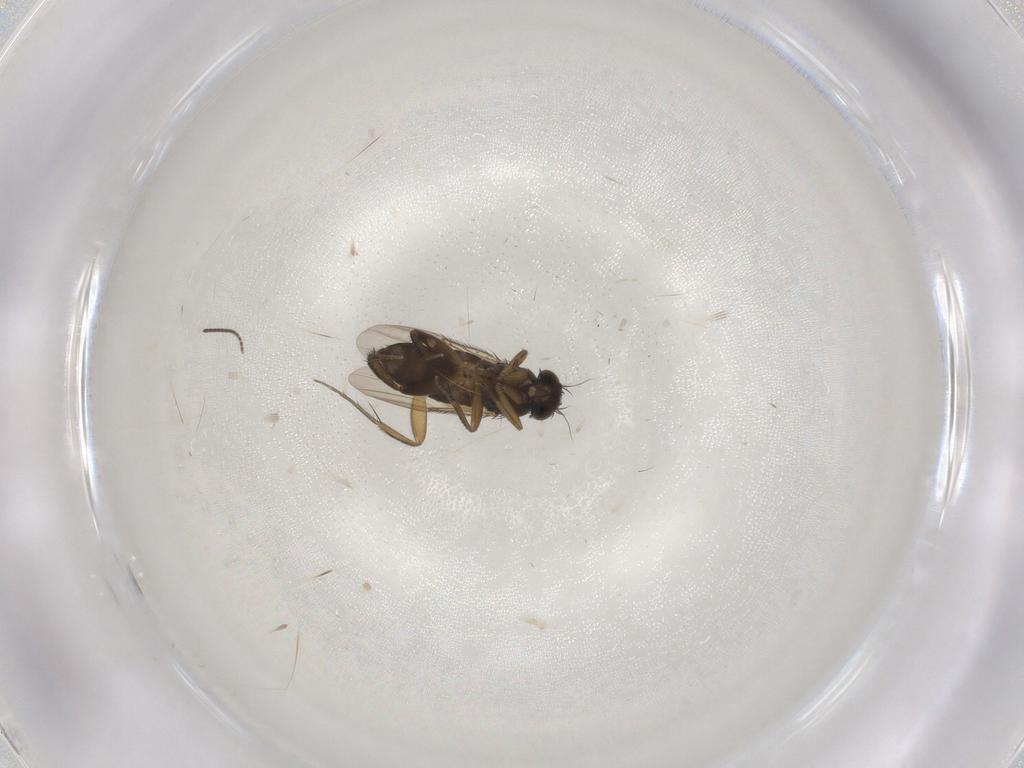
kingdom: Animalia
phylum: Arthropoda
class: Insecta
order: Diptera
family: Phoridae
